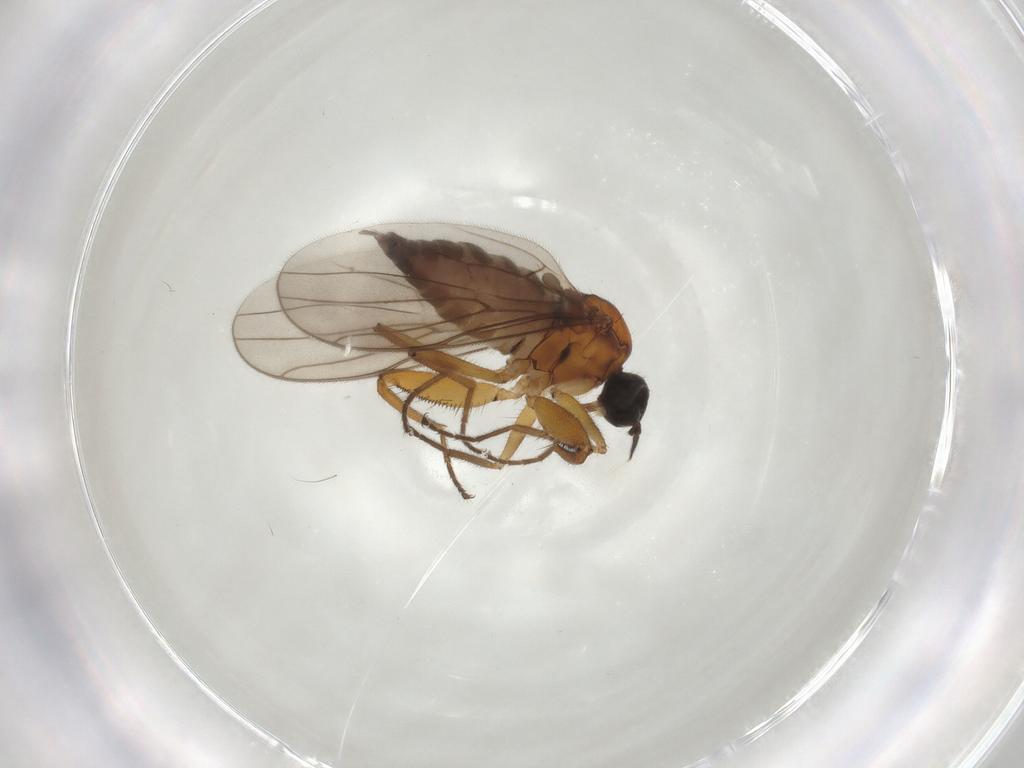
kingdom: Animalia
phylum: Arthropoda
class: Insecta
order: Diptera
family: Hybotidae
